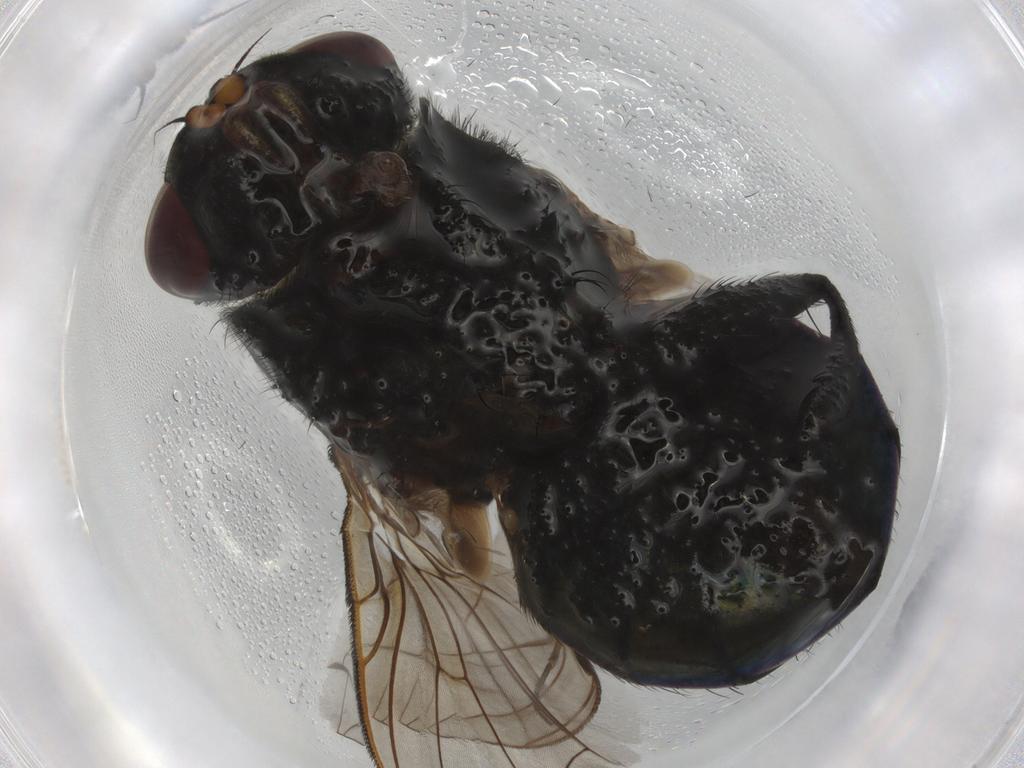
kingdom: Animalia
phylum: Arthropoda
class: Insecta
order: Diptera
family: Calliphoridae
